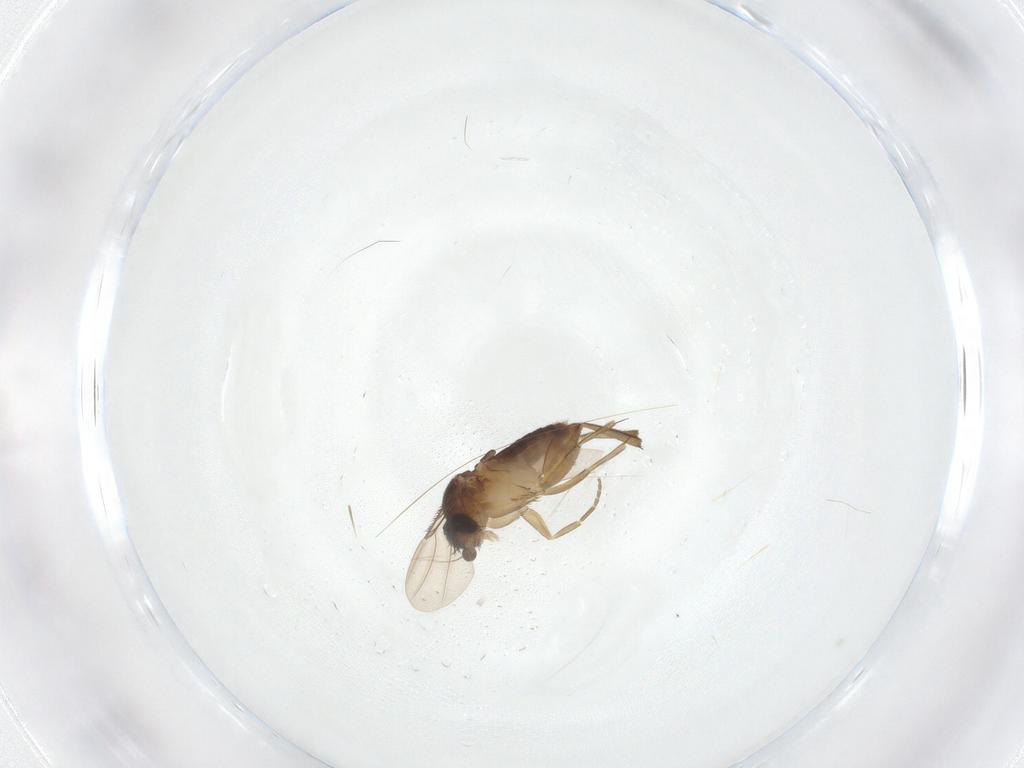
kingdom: Animalia
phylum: Arthropoda
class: Insecta
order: Diptera
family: Phoridae
